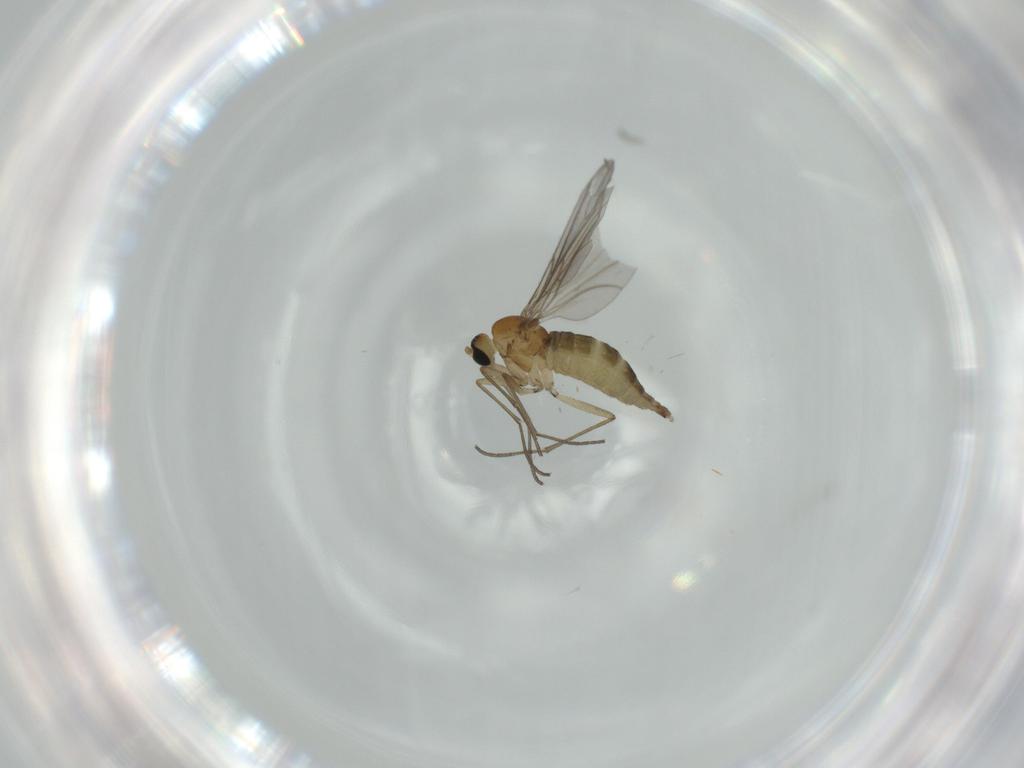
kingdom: Animalia
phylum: Arthropoda
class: Insecta
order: Diptera
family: Sciaridae
